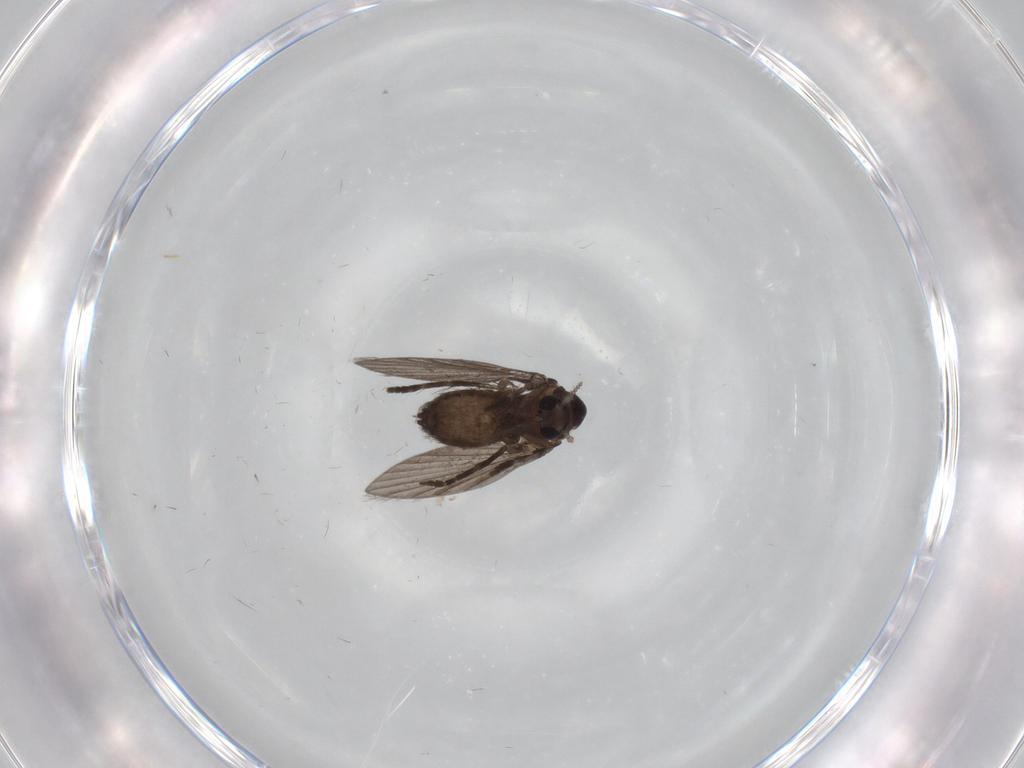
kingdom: Animalia
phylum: Arthropoda
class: Insecta
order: Diptera
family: Psychodidae
